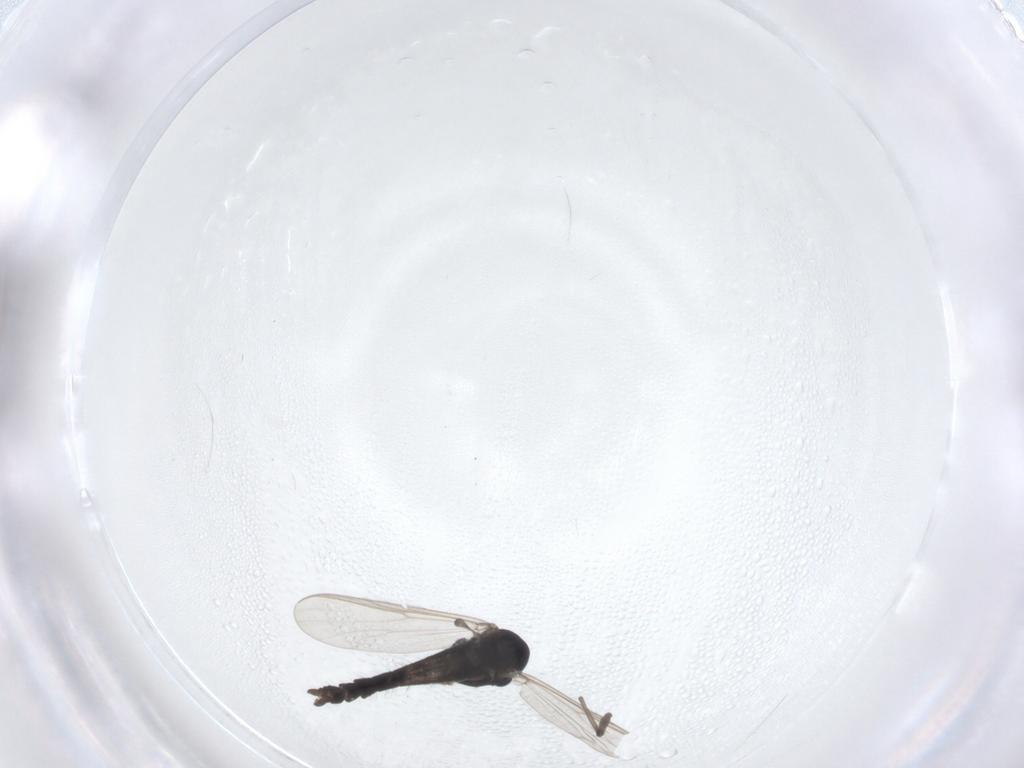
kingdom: Animalia
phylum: Arthropoda
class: Insecta
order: Diptera
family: Chironomidae
